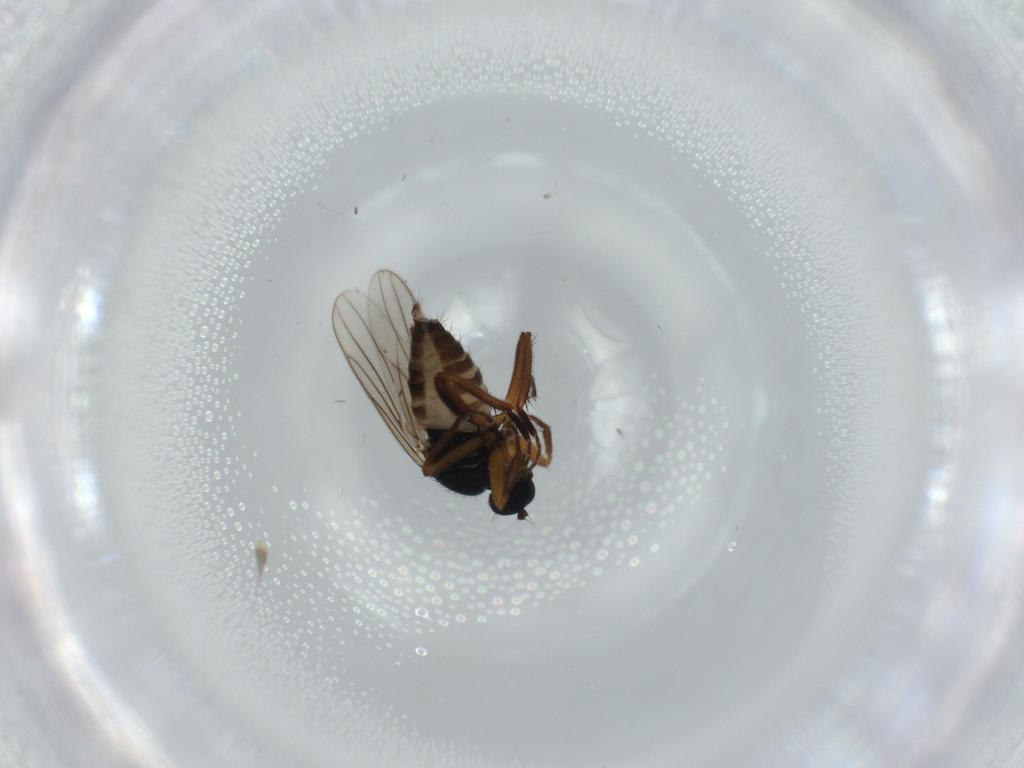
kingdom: Animalia
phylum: Arthropoda
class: Insecta
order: Diptera
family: Hybotidae
